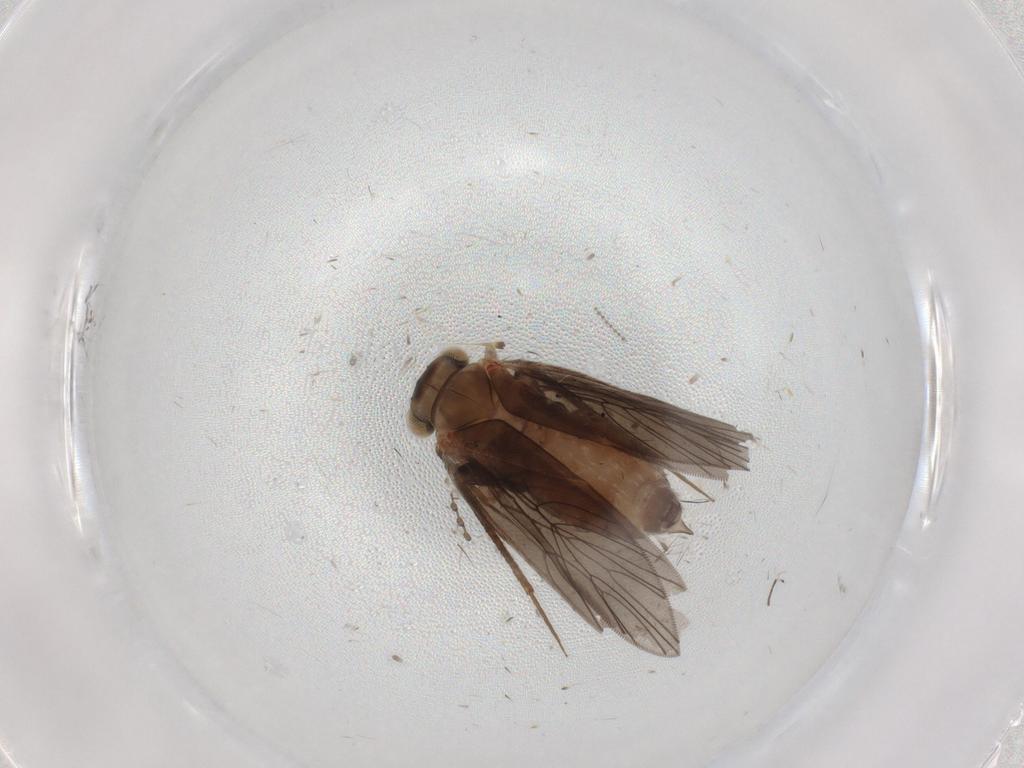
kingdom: Animalia
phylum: Arthropoda
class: Insecta
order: Psocodea
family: Lepidopsocidae
